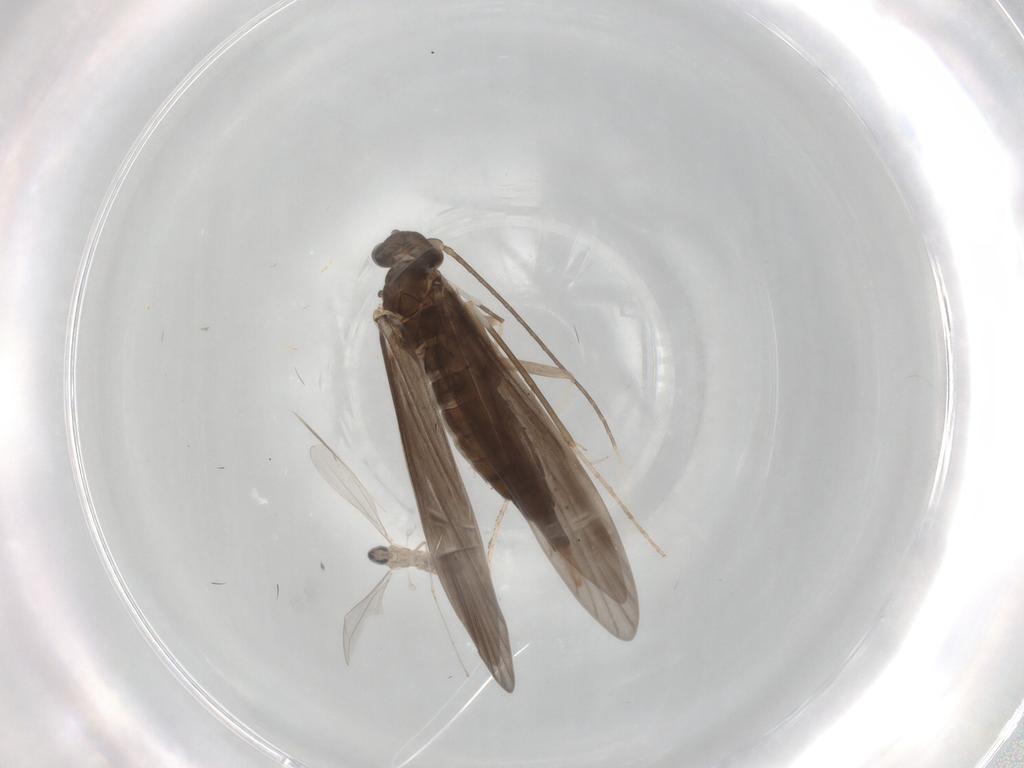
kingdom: Animalia
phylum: Arthropoda
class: Insecta
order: Trichoptera
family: Xiphocentronidae
